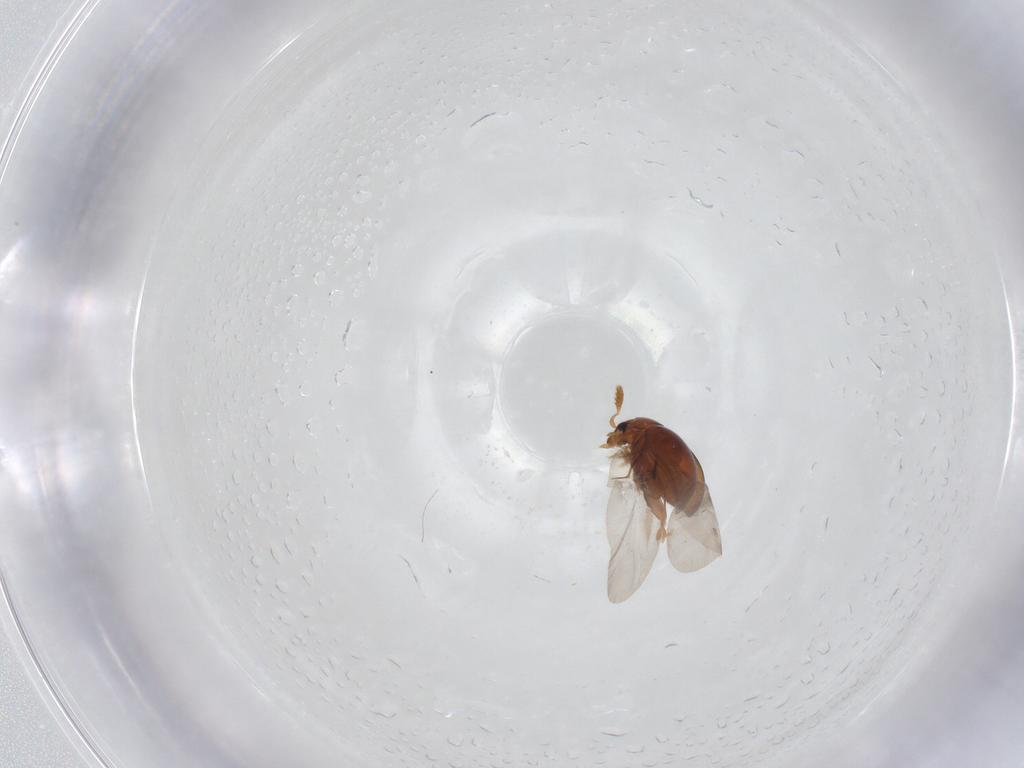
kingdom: Animalia
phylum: Arthropoda
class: Insecta
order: Coleoptera
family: Chrysomelidae
